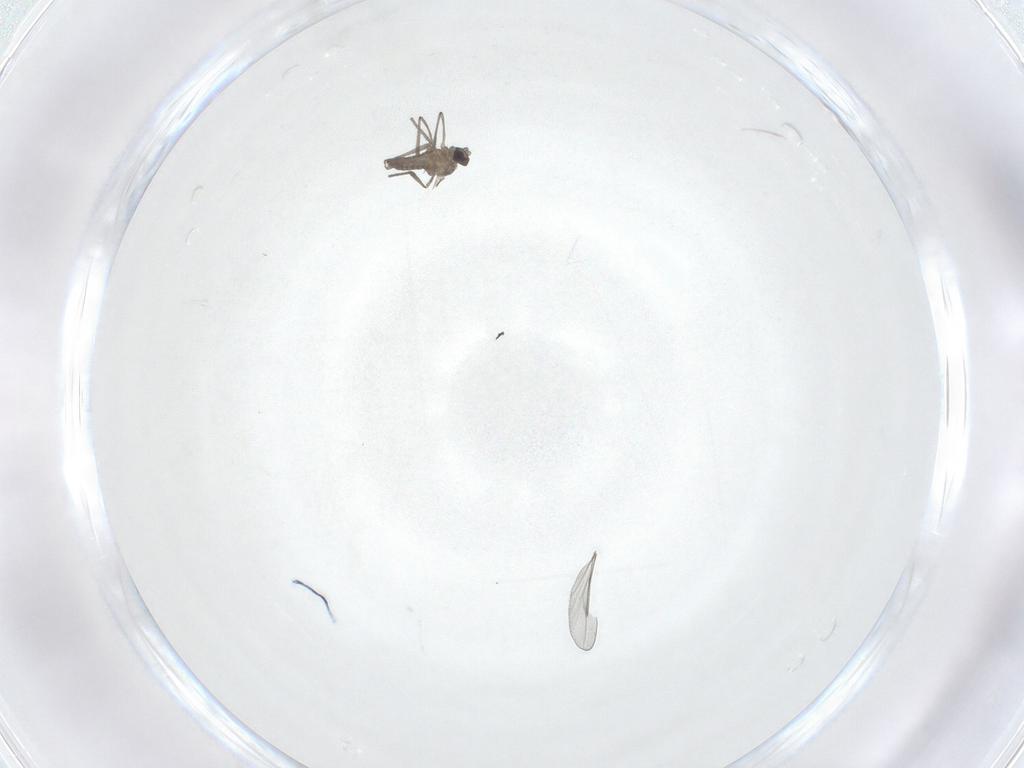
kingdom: Animalia
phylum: Arthropoda
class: Insecta
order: Diptera
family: Cecidomyiidae
